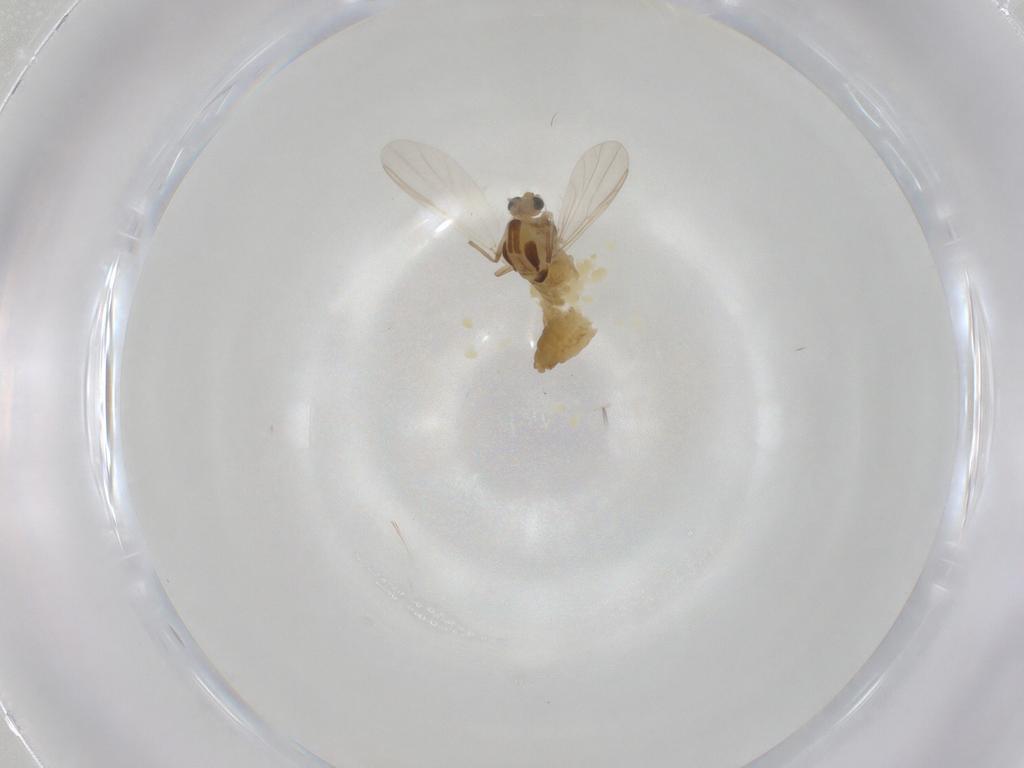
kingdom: Animalia
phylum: Arthropoda
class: Insecta
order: Diptera
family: Chironomidae
